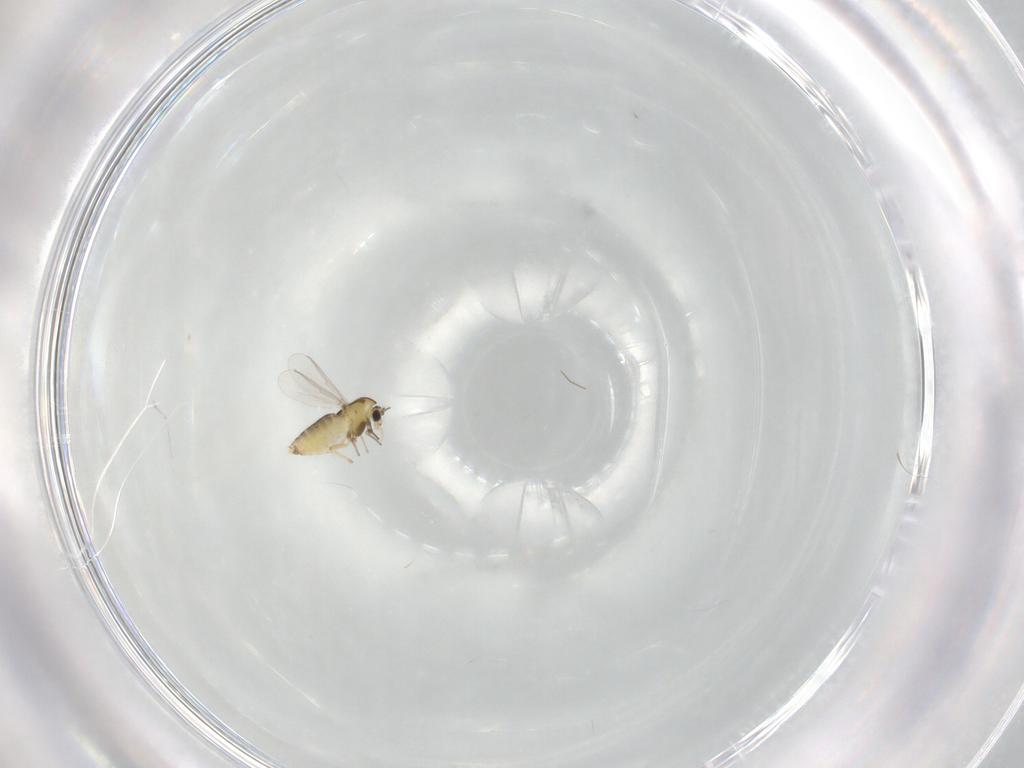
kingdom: Animalia
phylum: Arthropoda
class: Insecta
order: Diptera
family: Chironomidae
